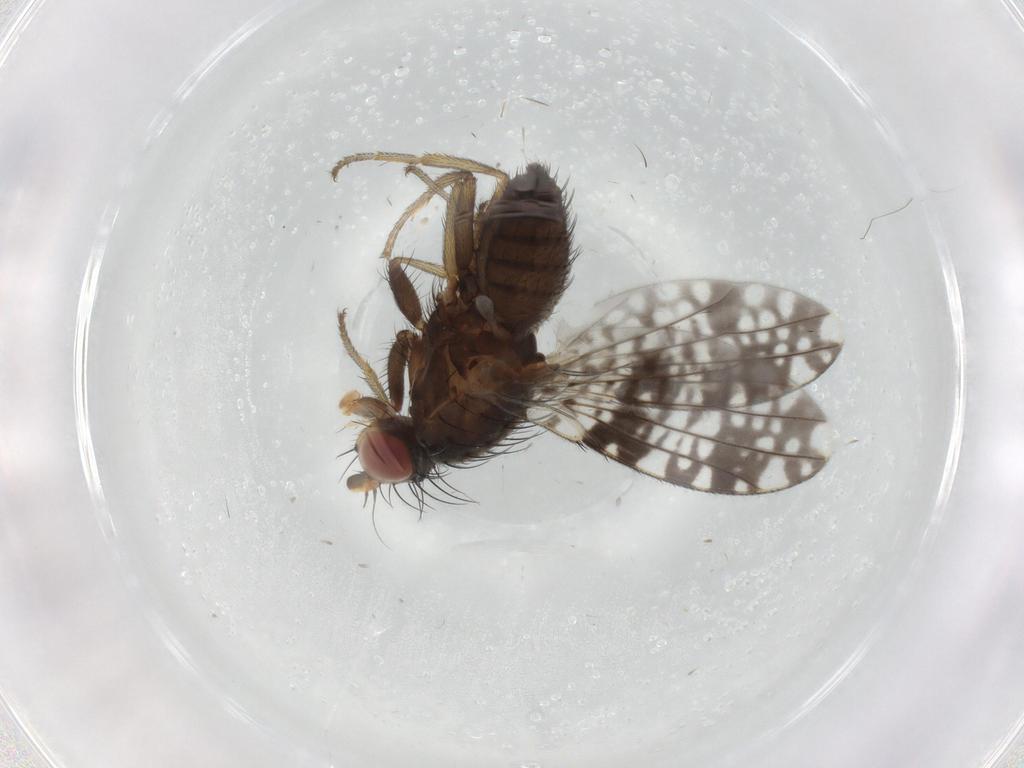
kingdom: Animalia
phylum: Arthropoda
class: Insecta
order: Diptera
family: Tephritidae
